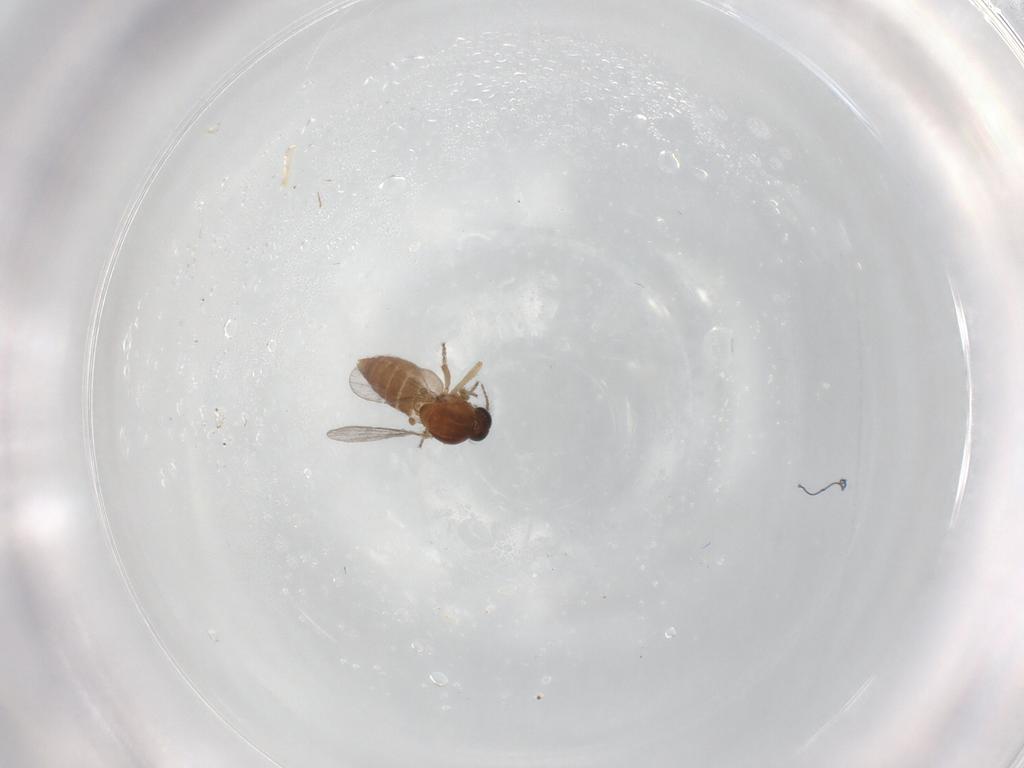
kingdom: Animalia
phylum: Arthropoda
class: Insecta
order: Diptera
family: Ceratopogonidae
